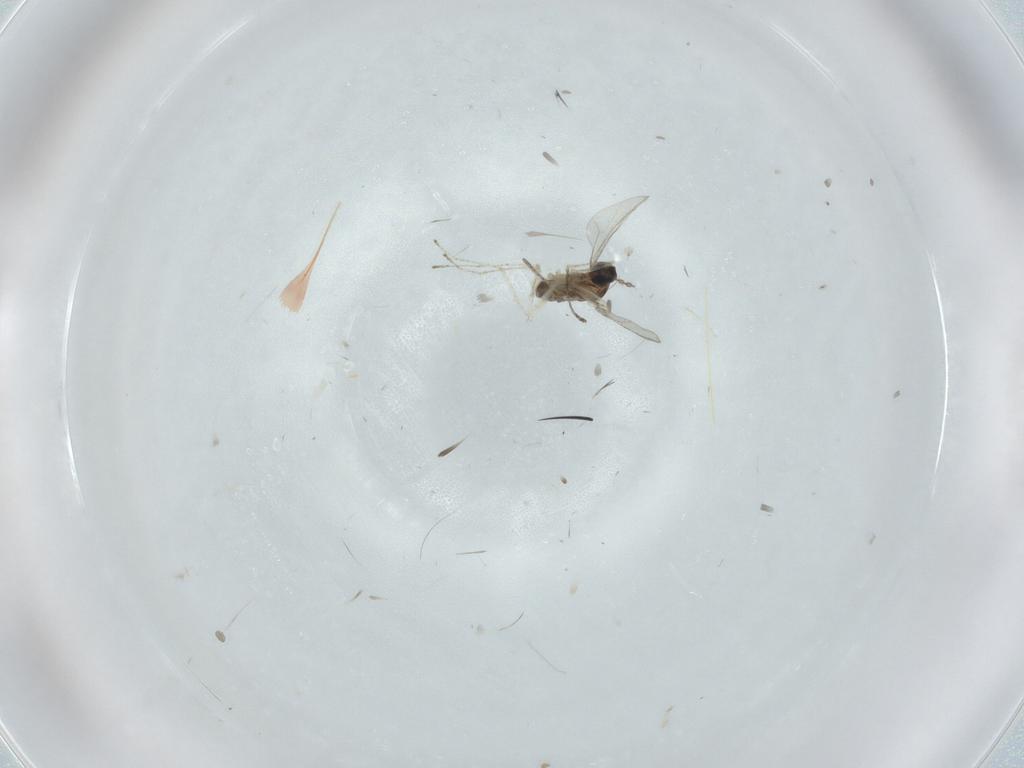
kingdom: Animalia
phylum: Arthropoda
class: Insecta
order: Diptera
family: Cecidomyiidae
